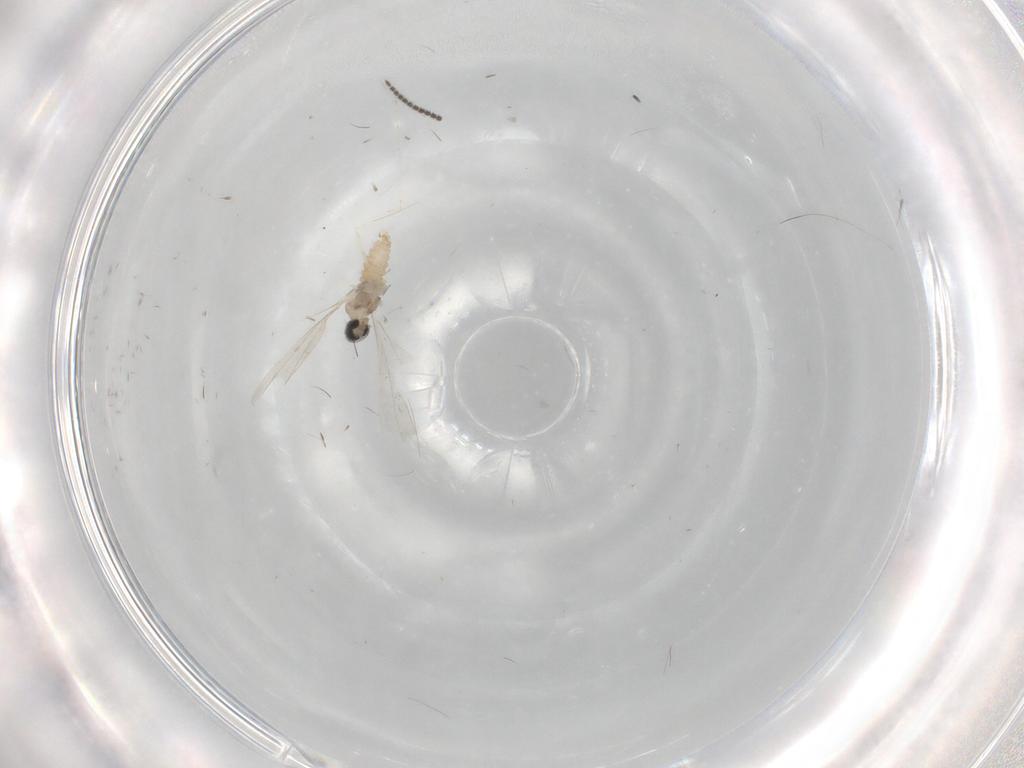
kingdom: Animalia
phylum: Arthropoda
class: Insecta
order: Diptera
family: Cecidomyiidae
